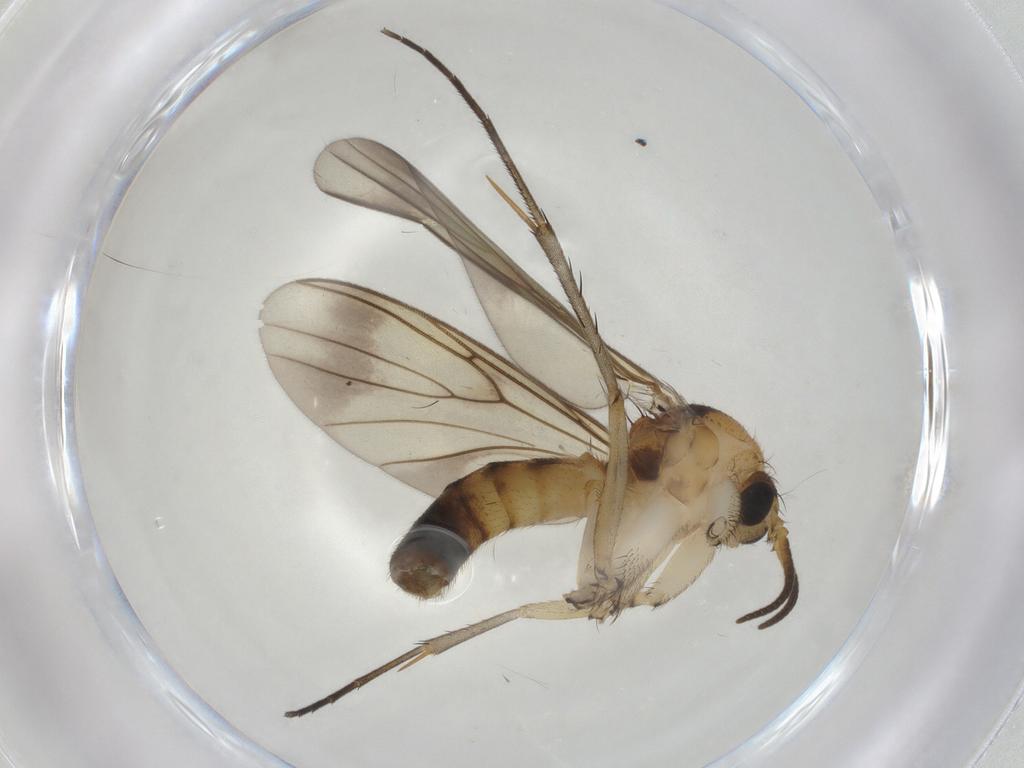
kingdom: Animalia
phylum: Arthropoda
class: Insecta
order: Diptera
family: Mycetophilidae
